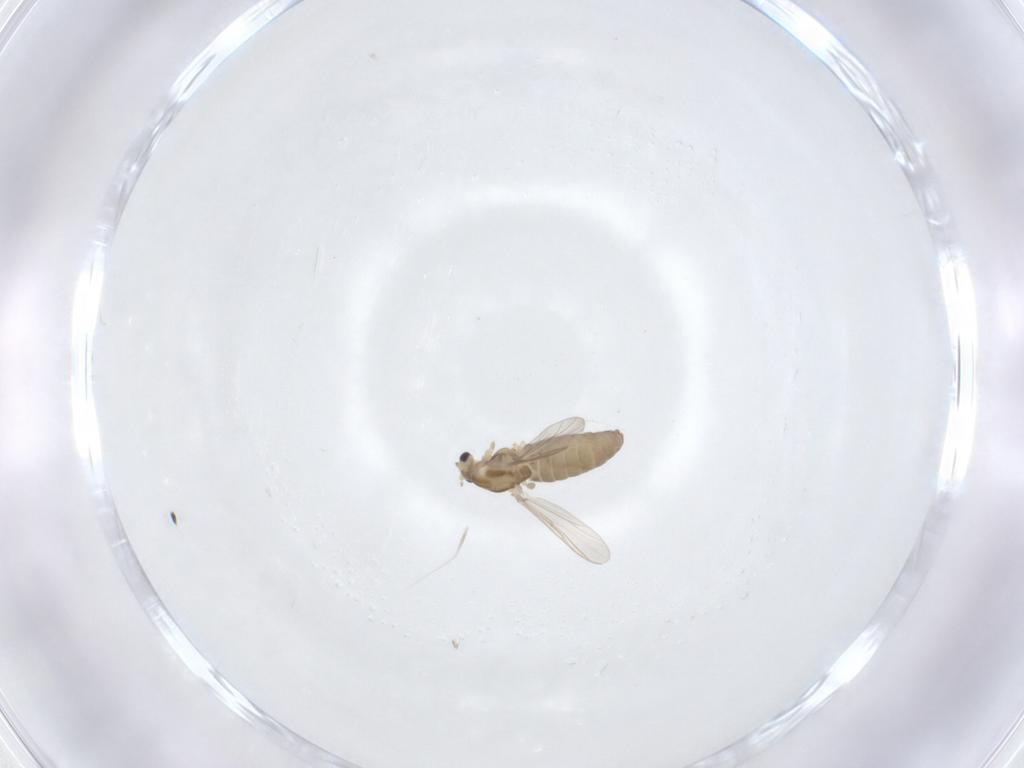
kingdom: Animalia
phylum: Arthropoda
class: Insecta
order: Diptera
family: Chironomidae
